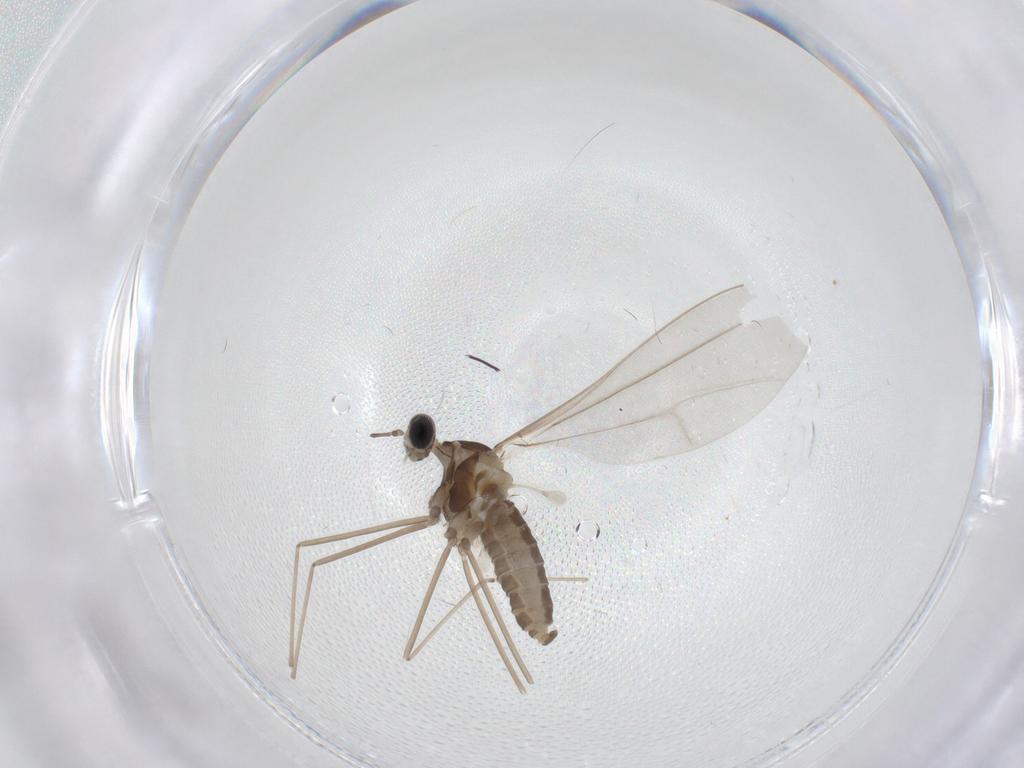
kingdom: Animalia
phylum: Arthropoda
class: Insecta
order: Diptera
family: Cecidomyiidae
